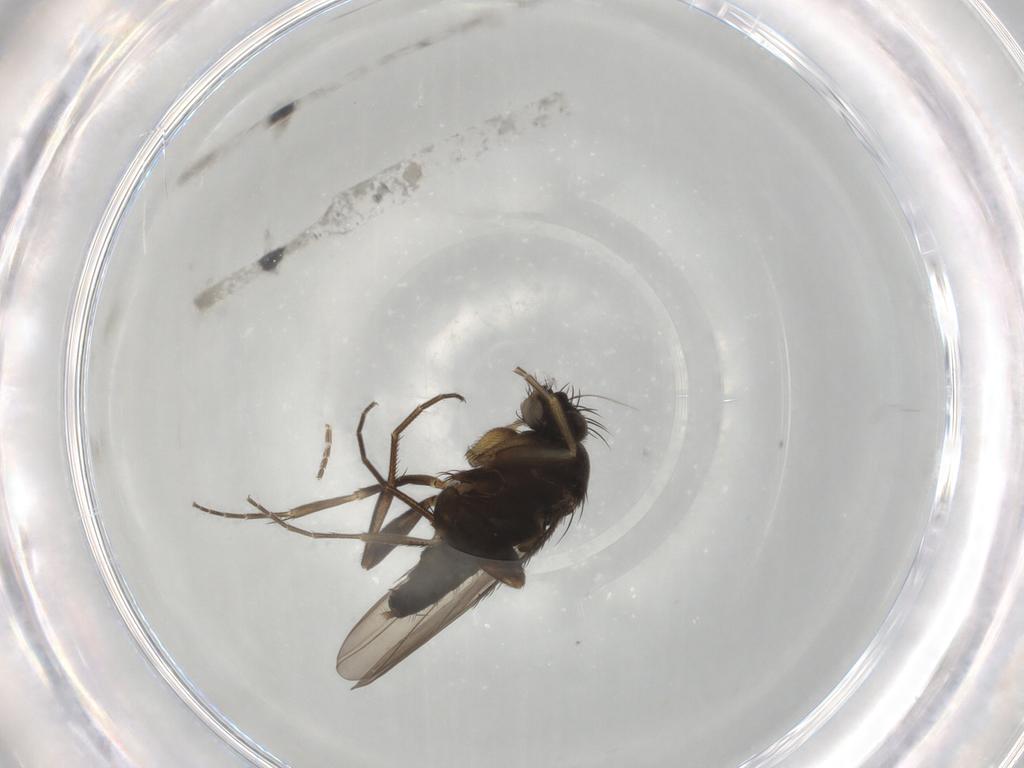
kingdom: Animalia
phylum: Arthropoda
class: Insecta
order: Diptera
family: Phoridae
